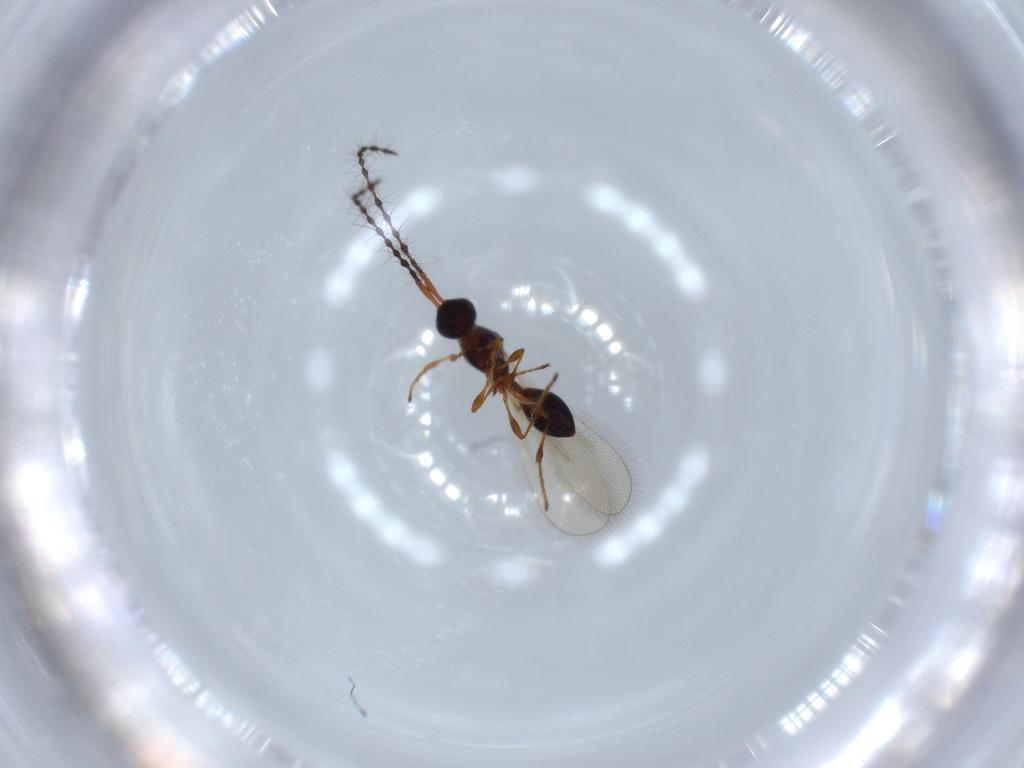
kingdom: Animalia
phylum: Arthropoda
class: Insecta
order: Hymenoptera
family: Diapriidae
